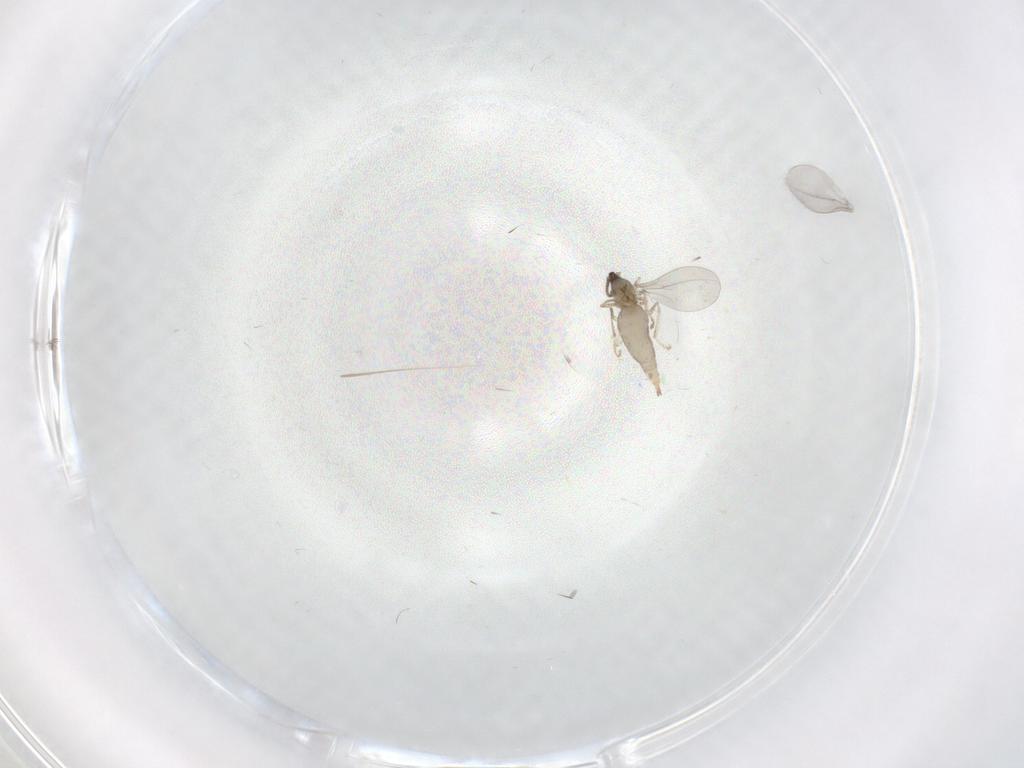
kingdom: Animalia
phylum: Arthropoda
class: Insecta
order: Diptera
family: Limoniidae
